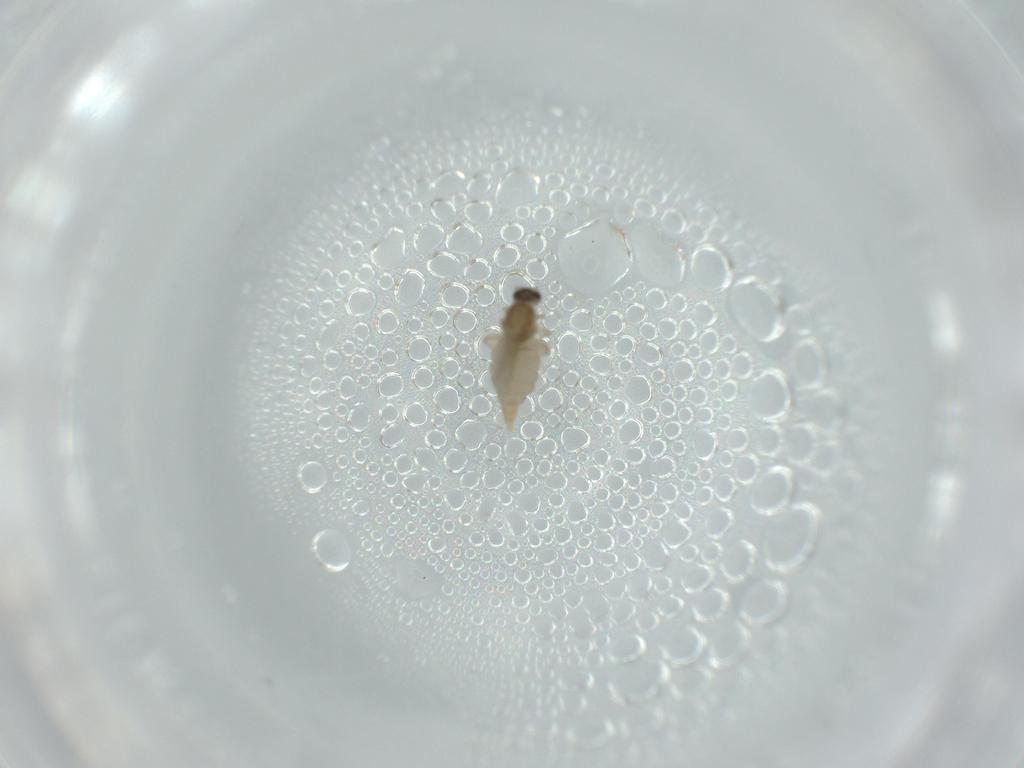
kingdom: Animalia
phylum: Arthropoda
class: Insecta
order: Diptera
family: Cecidomyiidae
